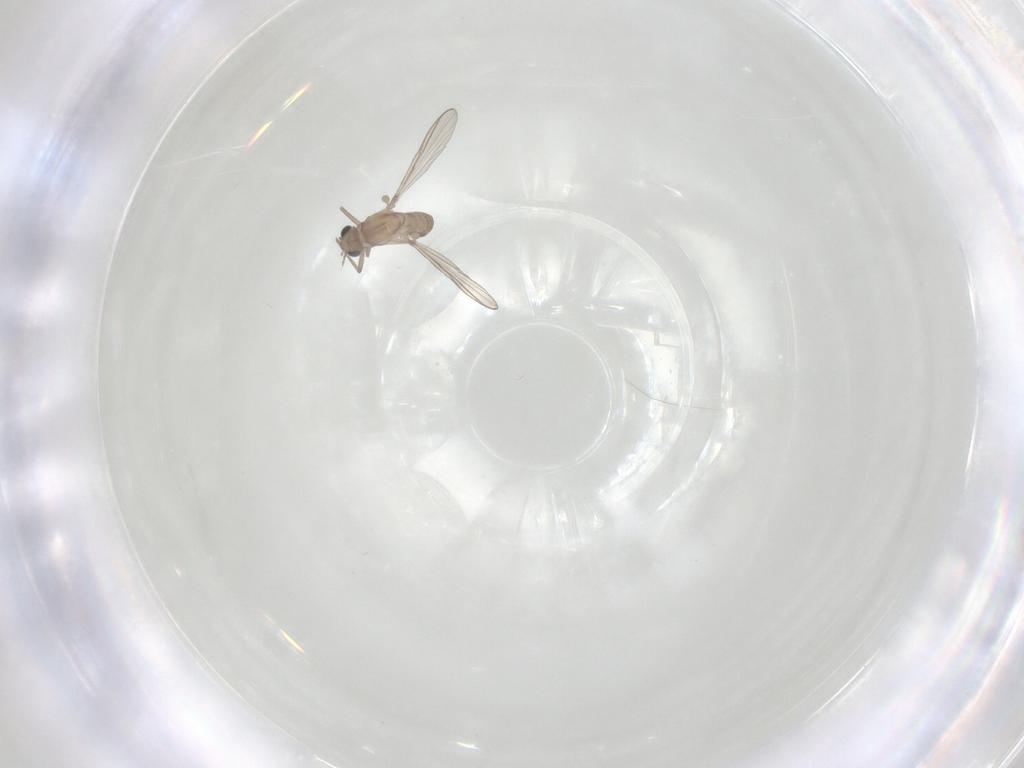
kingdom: Animalia
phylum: Arthropoda
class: Insecta
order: Diptera
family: Chironomidae
